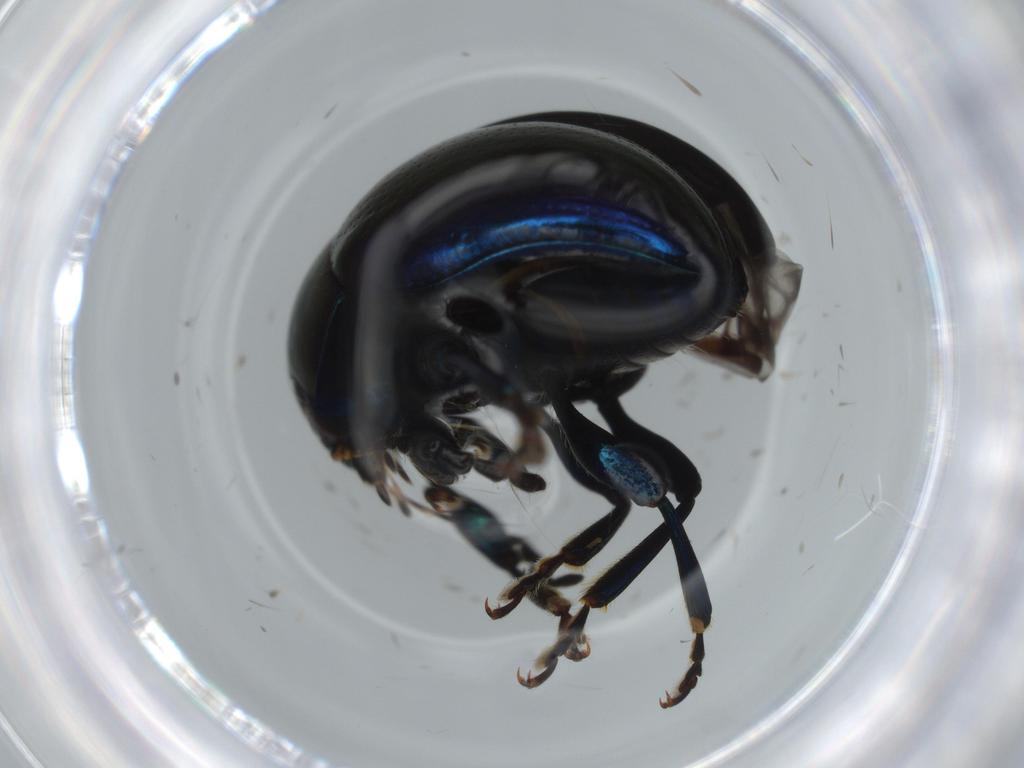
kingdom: Animalia
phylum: Arthropoda
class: Insecta
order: Coleoptera
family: Chrysomelidae
